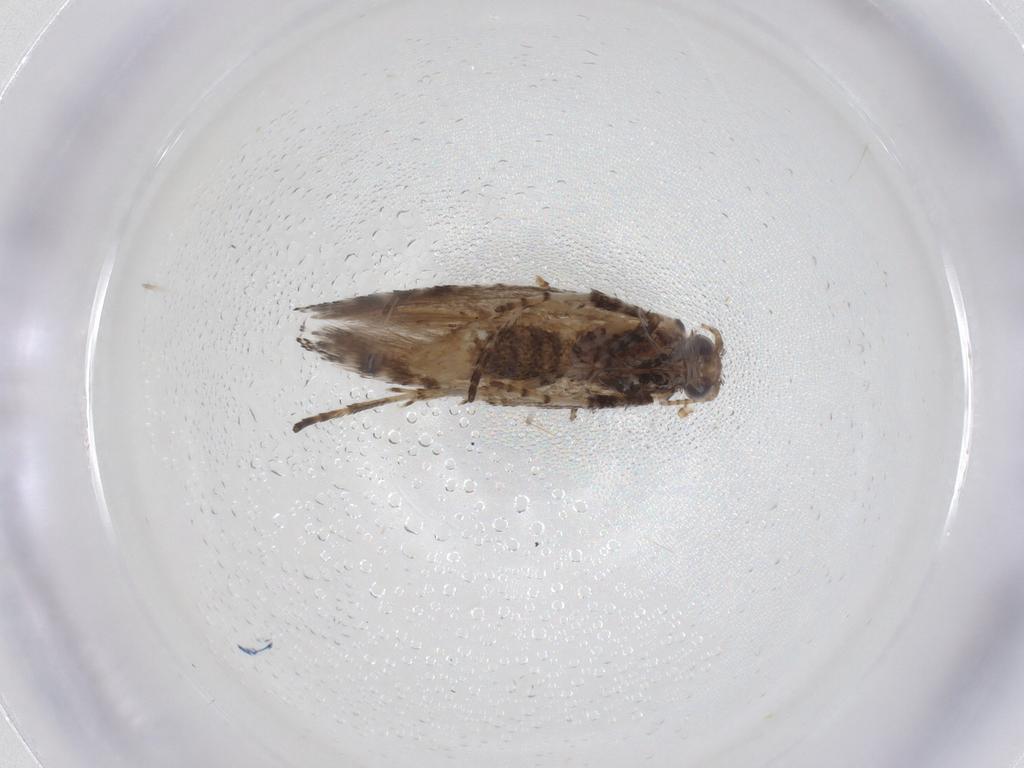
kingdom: Animalia
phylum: Arthropoda
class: Insecta
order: Lepidoptera
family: Gracillariidae
